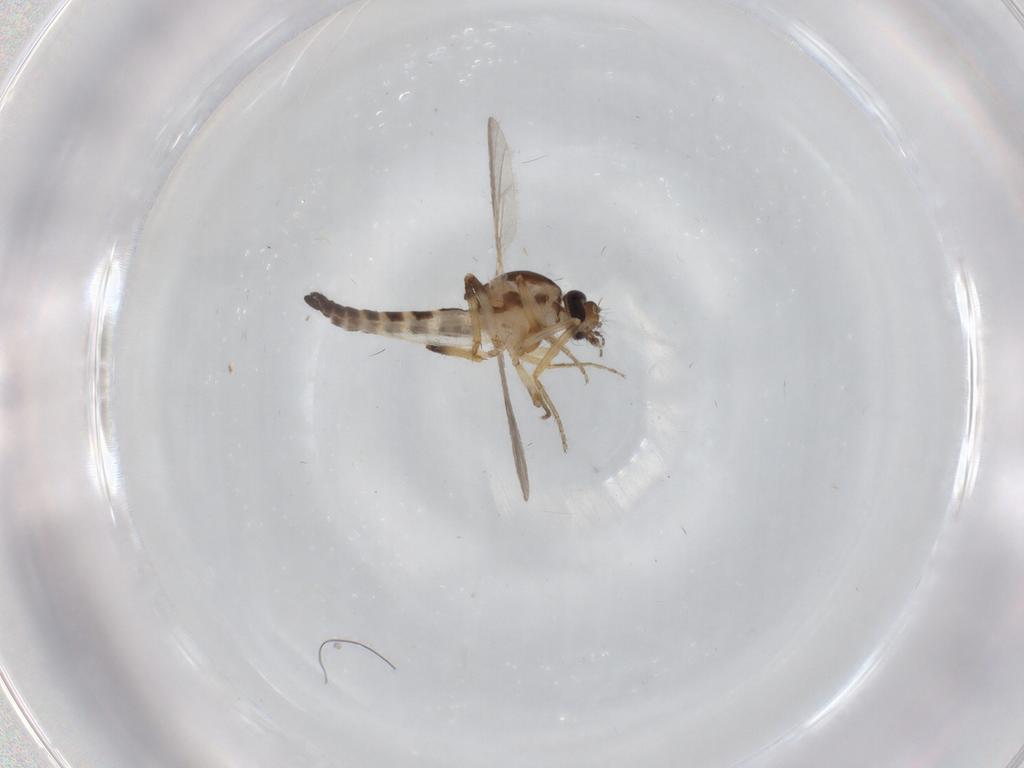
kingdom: Animalia
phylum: Arthropoda
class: Insecta
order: Diptera
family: Ceratopogonidae
